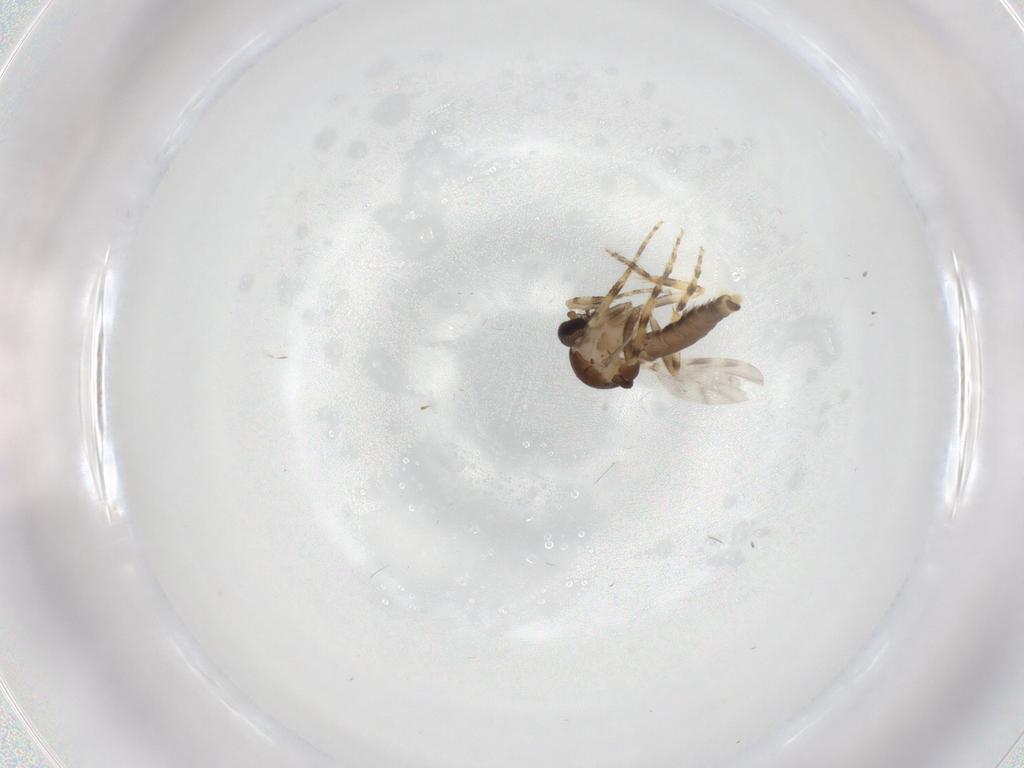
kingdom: Animalia
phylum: Arthropoda
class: Insecta
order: Diptera
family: Ceratopogonidae
